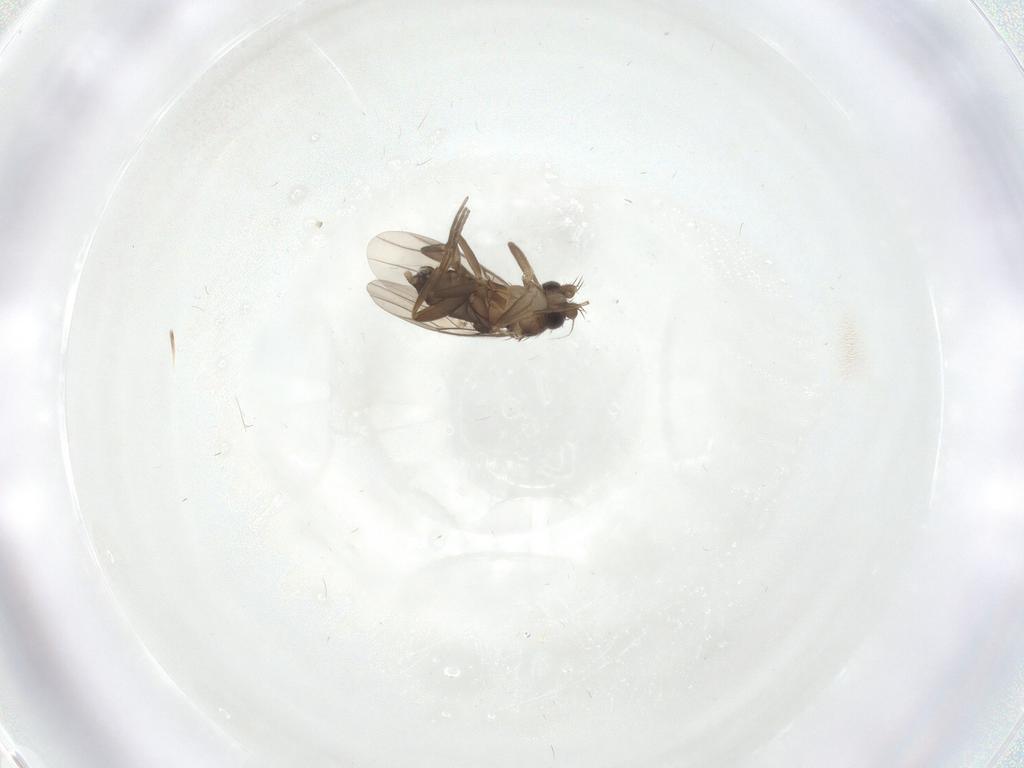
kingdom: Animalia
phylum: Arthropoda
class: Insecta
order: Diptera
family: Phoridae
